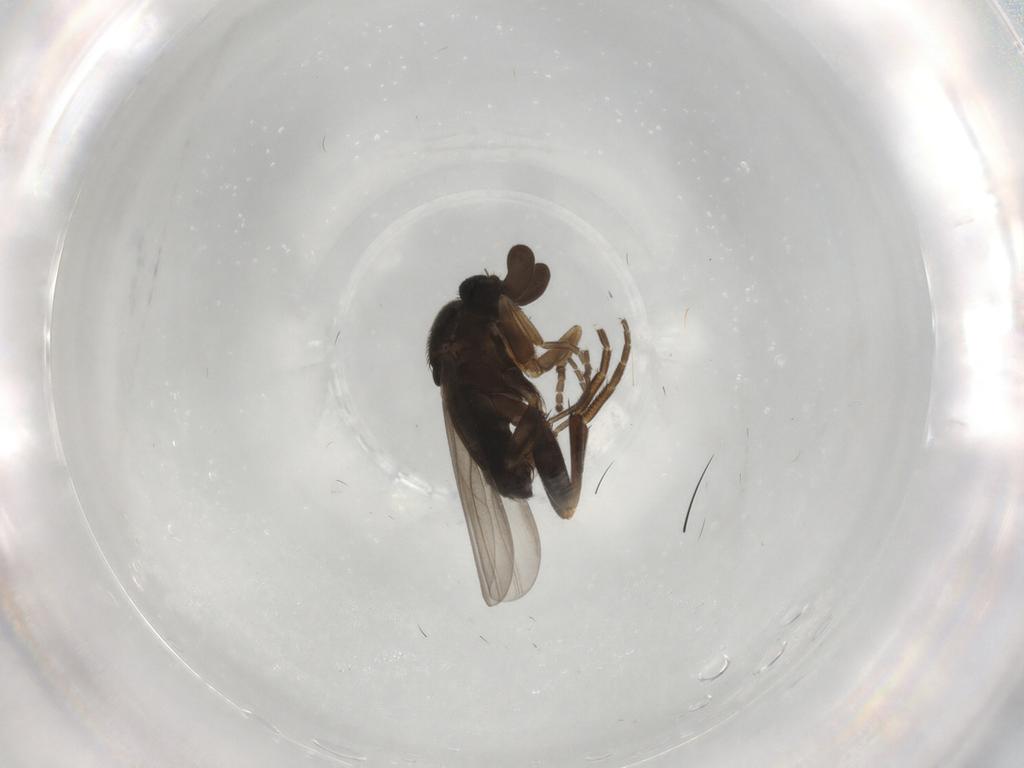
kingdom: Animalia
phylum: Arthropoda
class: Insecta
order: Diptera
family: Phoridae
